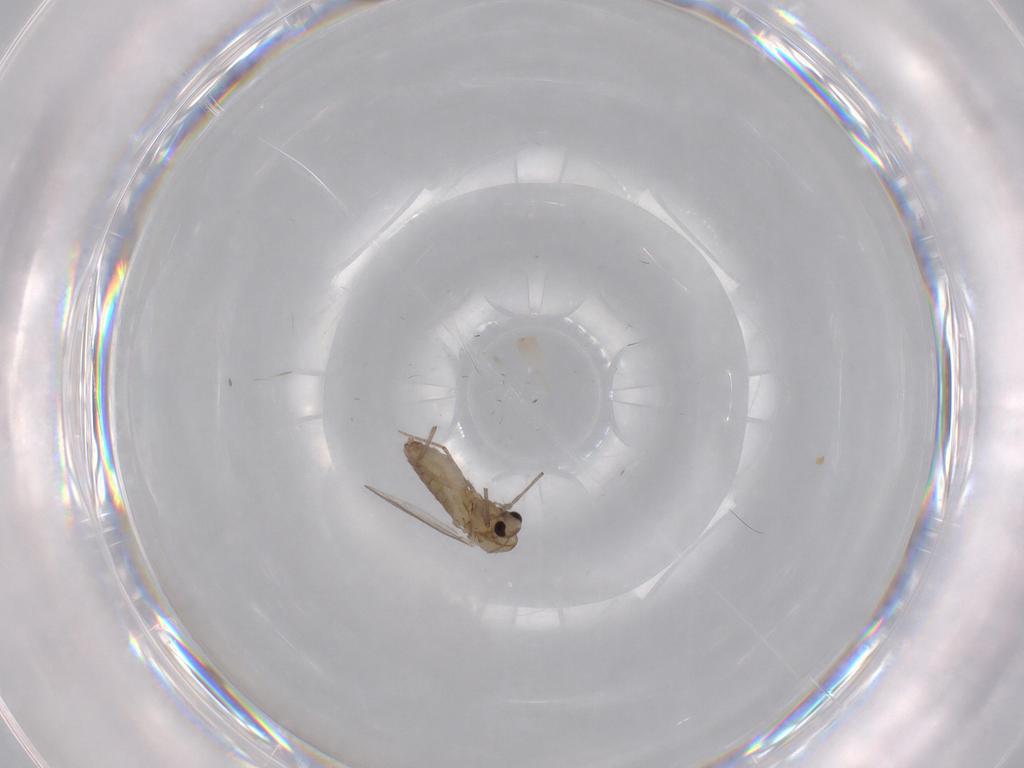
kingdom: Animalia
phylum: Arthropoda
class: Insecta
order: Diptera
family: Chironomidae
